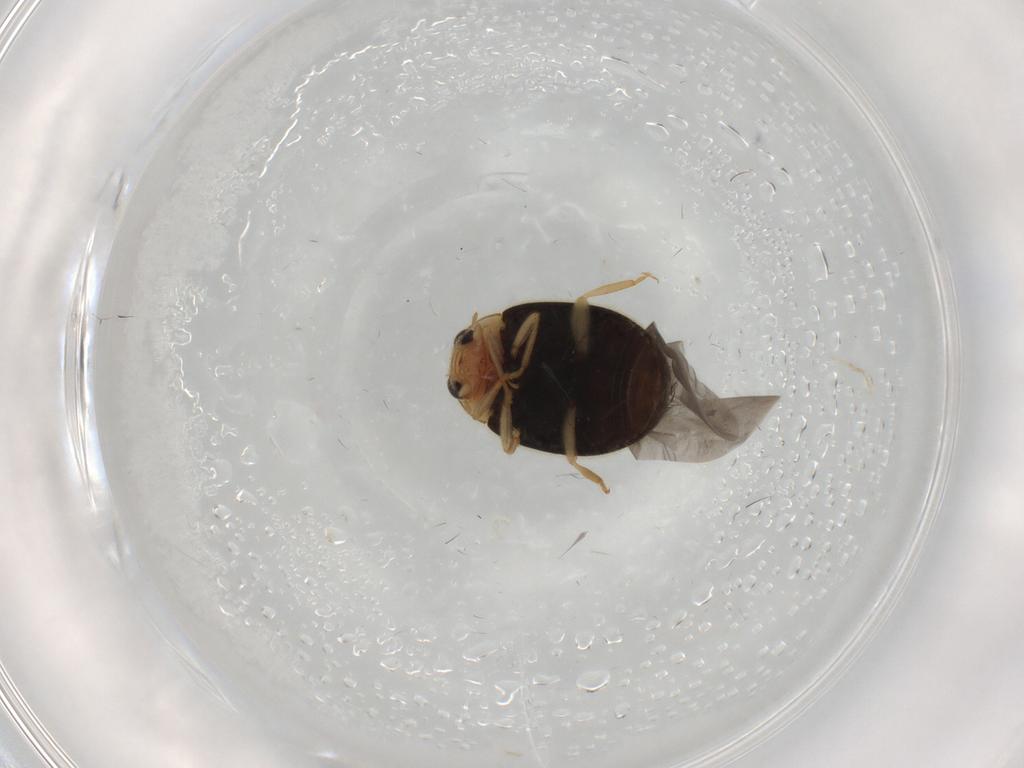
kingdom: Animalia
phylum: Arthropoda
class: Insecta
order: Coleoptera
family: Coccinellidae
